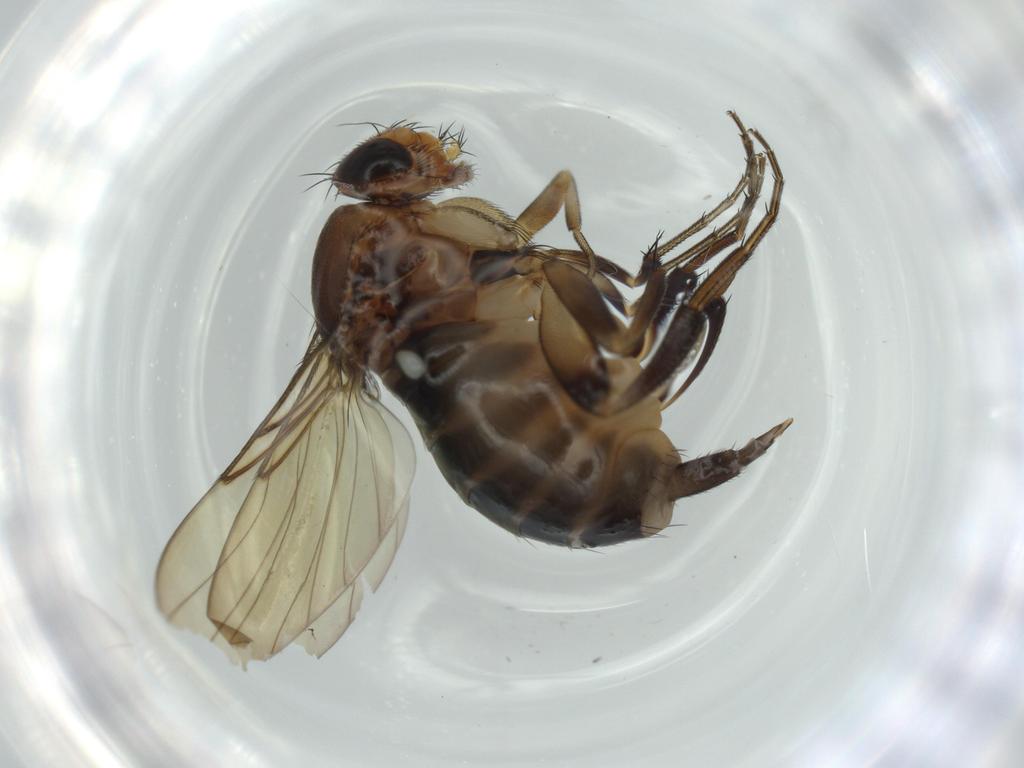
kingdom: Animalia
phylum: Arthropoda
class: Insecta
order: Diptera
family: Phoridae
